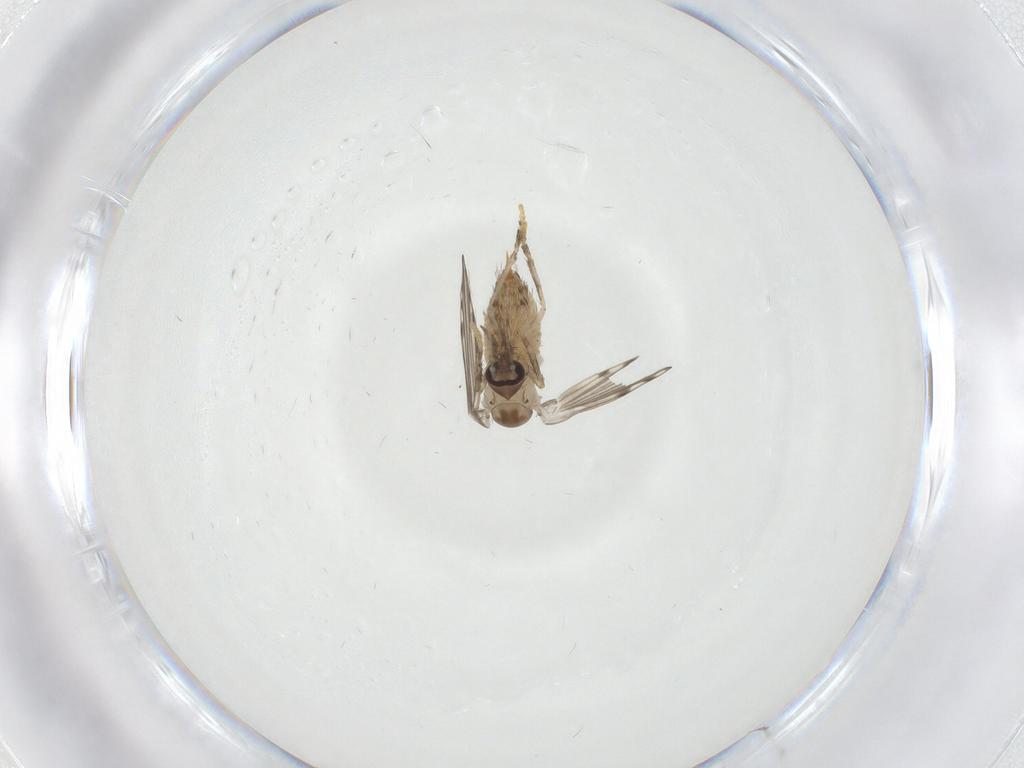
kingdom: Animalia
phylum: Arthropoda
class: Insecta
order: Diptera
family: Psychodidae
